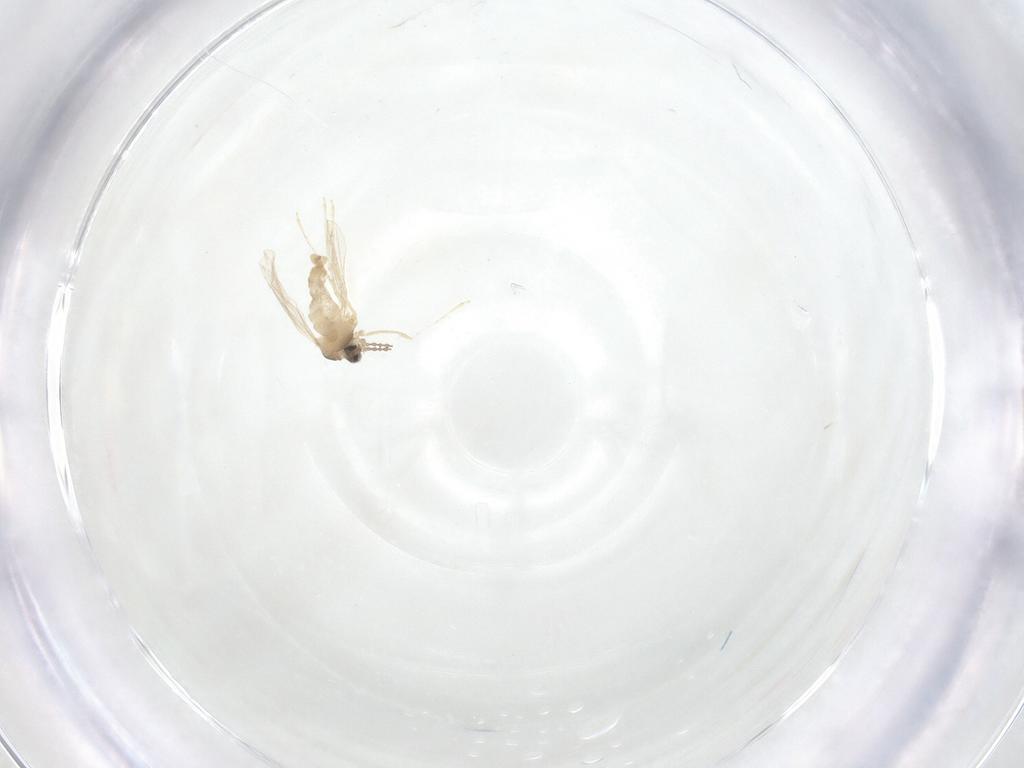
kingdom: Animalia
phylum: Arthropoda
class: Insecta
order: Diptera
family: Cecidomyiidae
